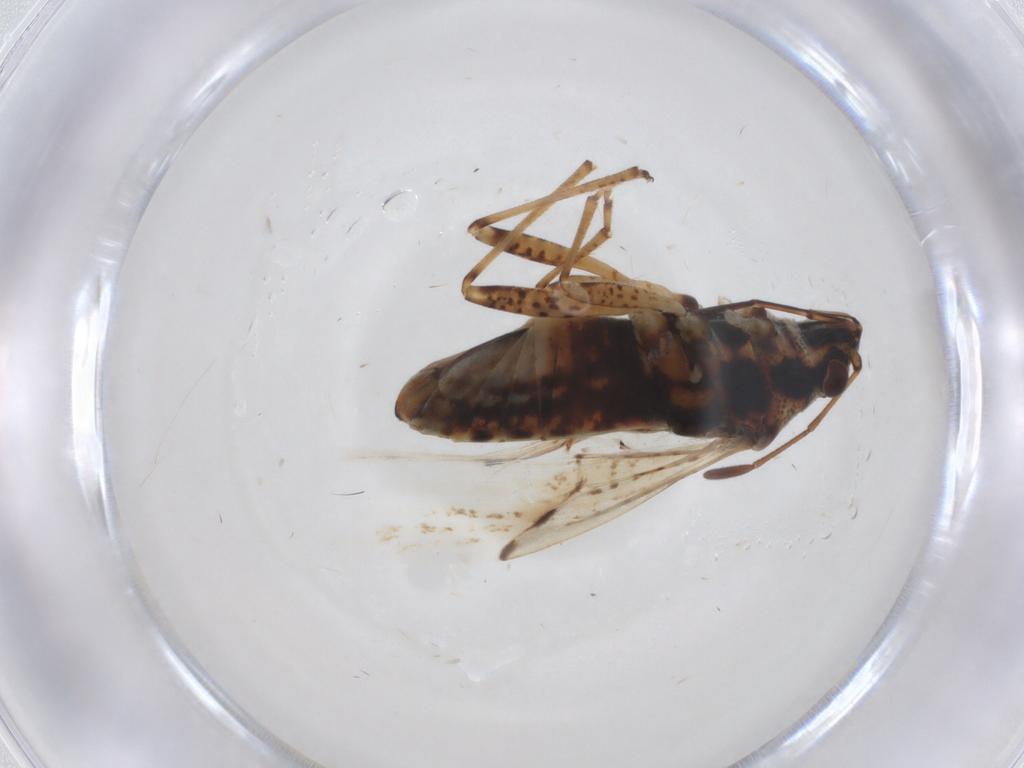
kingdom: Animalia
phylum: Arthropoda
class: Insecta
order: Hemiptera
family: Lygaeidae
